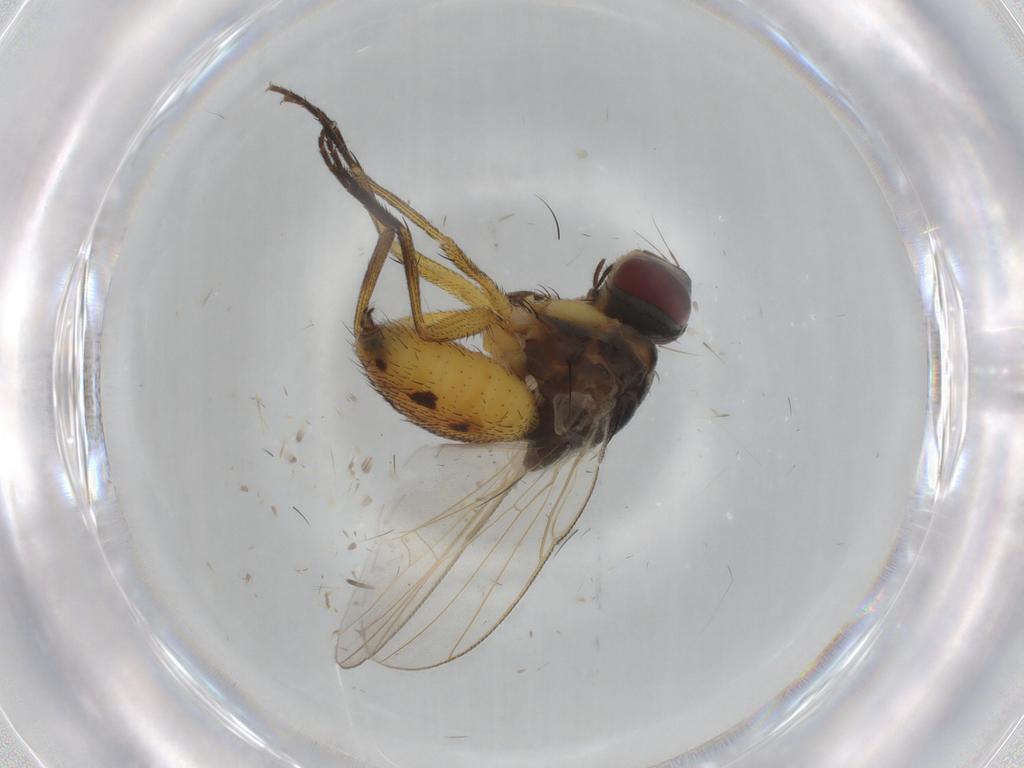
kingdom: Animalia
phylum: Arthropoda
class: Insecta
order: Diptera
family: Muscidae
